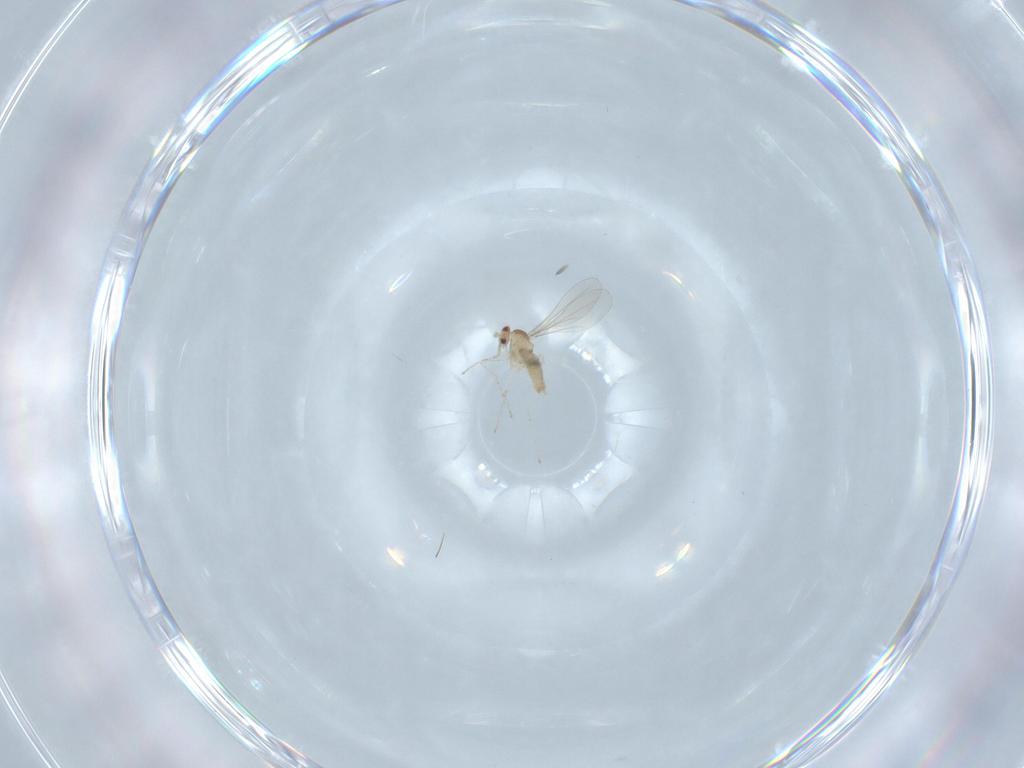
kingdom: Animalia
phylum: Arthropoda
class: Insecta
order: Diptera
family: Cecidomyiidae
